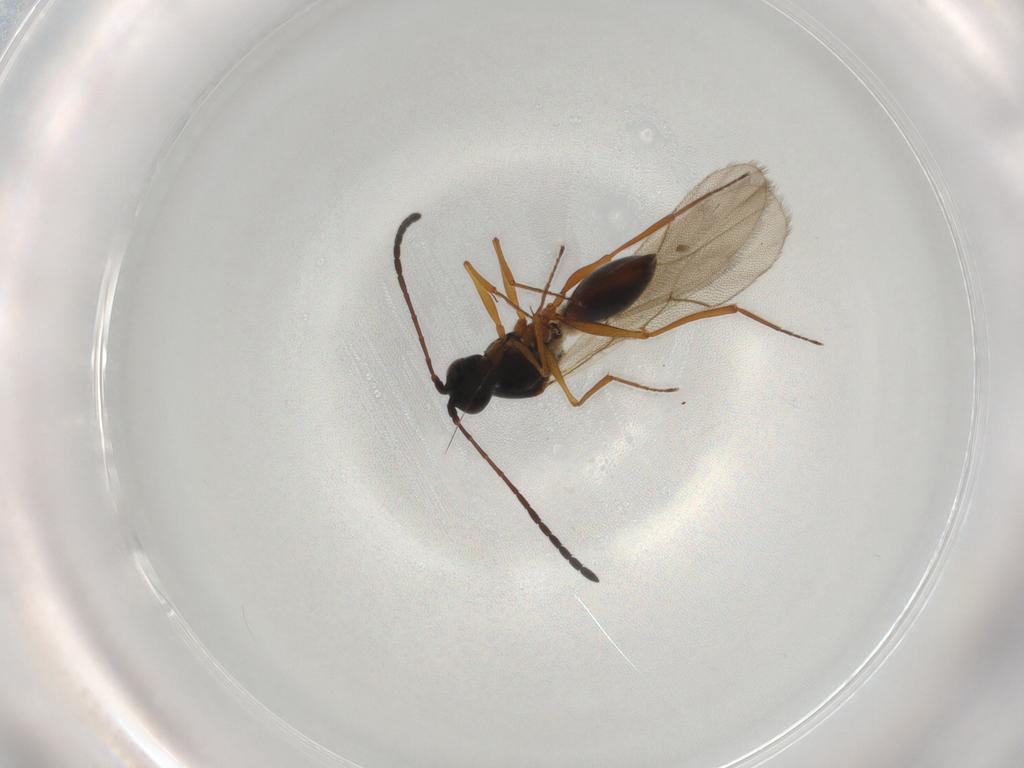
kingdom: Animalia
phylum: Arthropoda
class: Insecta
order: Hymenoptera
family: Figitidae
